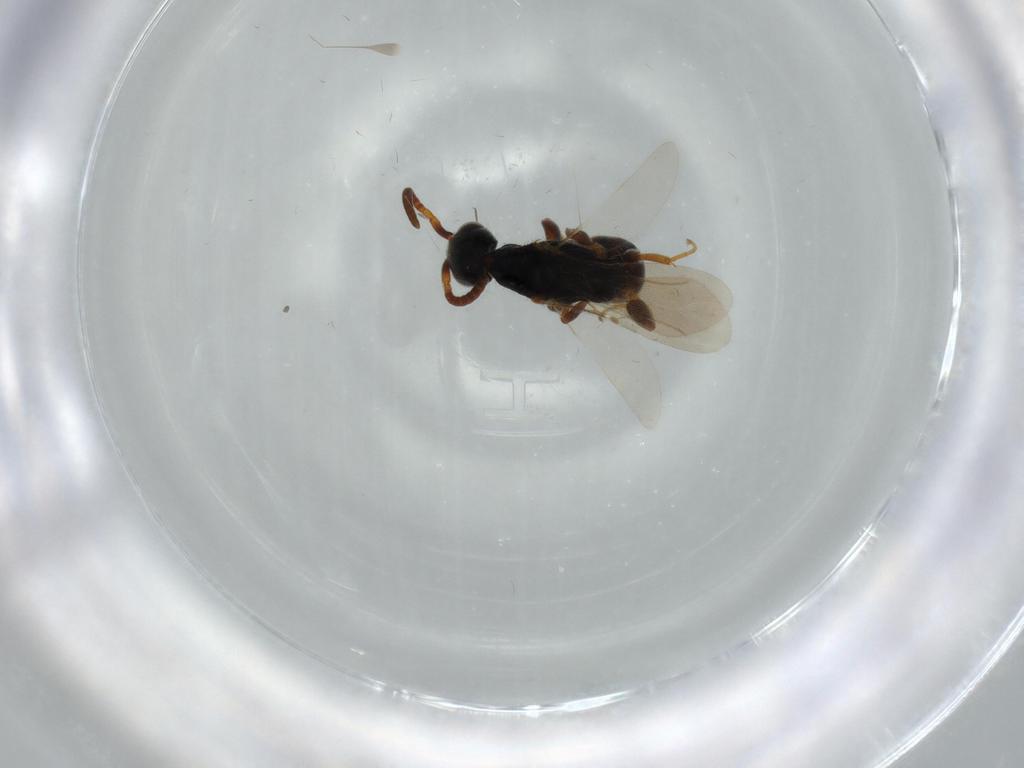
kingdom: Animalia
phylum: Arthropoda
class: Insecta
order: Hymenoptera
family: Bethylidae
